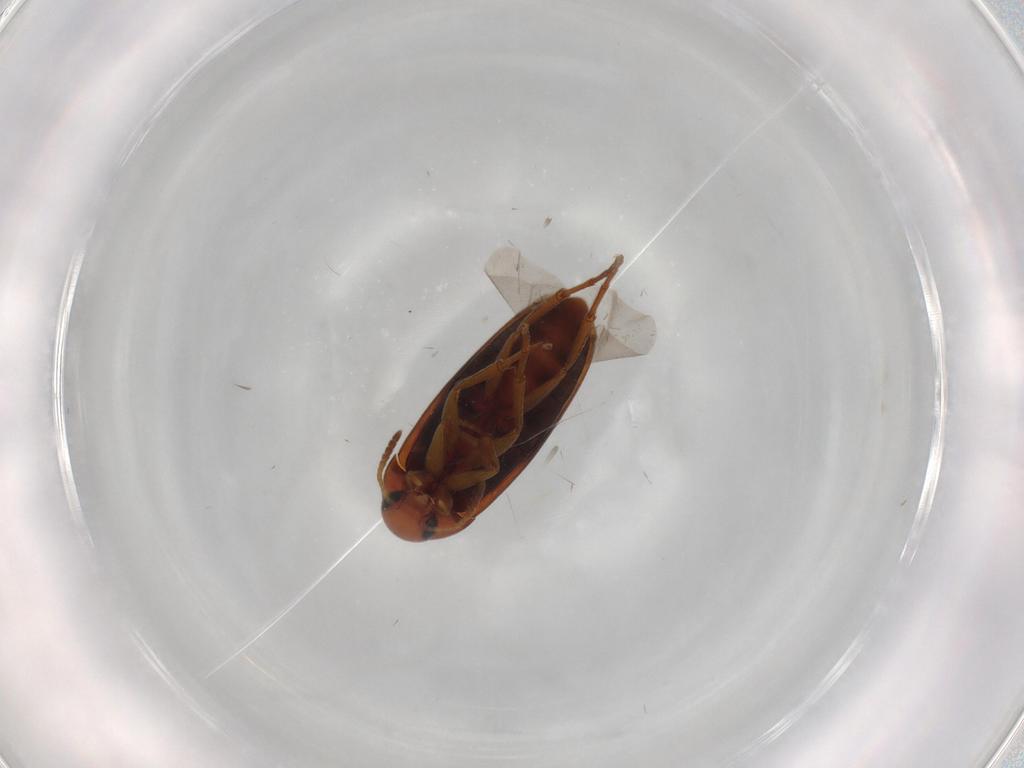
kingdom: Animalia
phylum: Arthropoda
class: Insecta
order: Coleoptera
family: Scraptiidae
